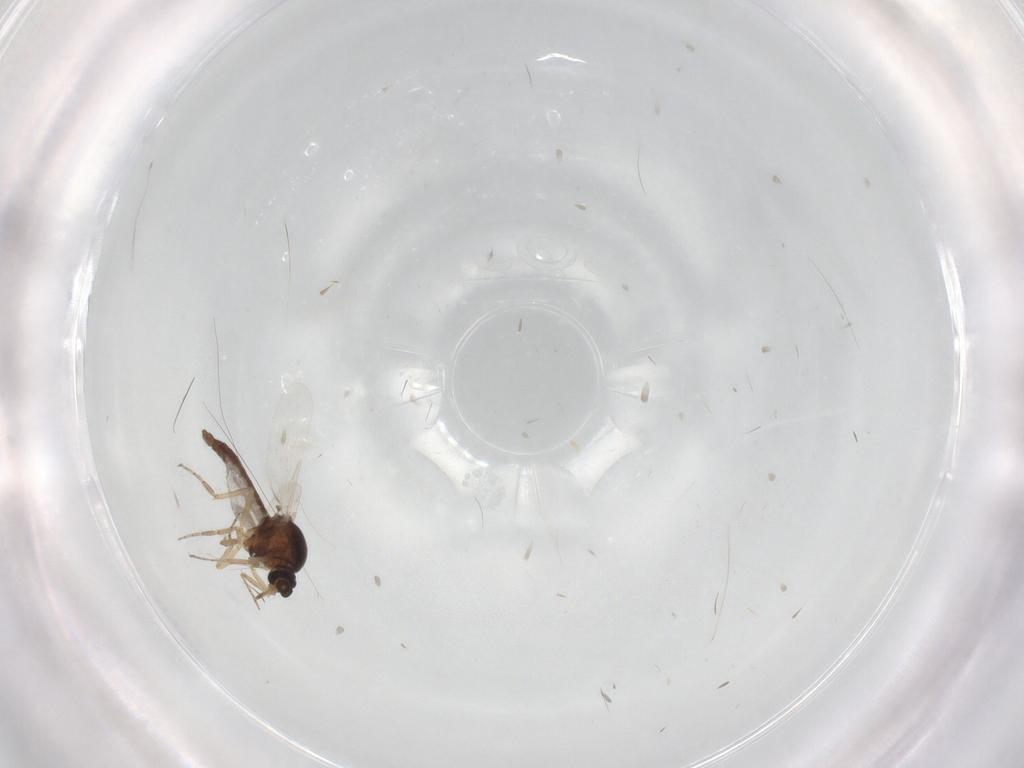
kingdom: Animalia
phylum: Arthropoda
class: Insecta
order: Diptera
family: Ceratopogonidae
